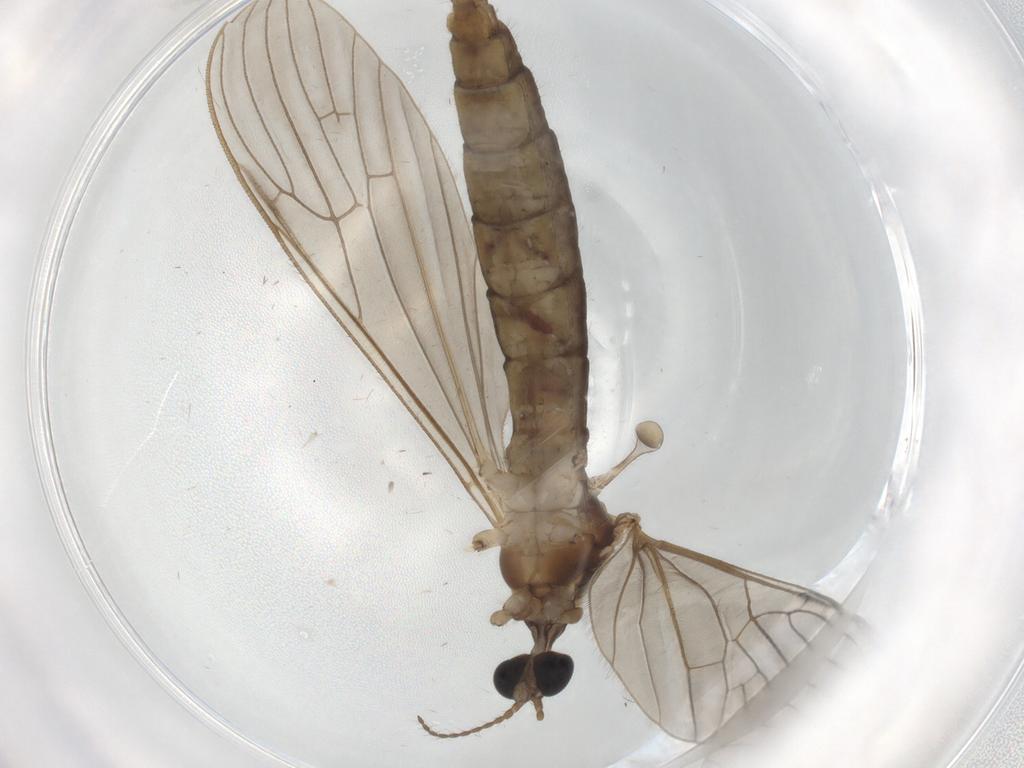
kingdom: Animalia
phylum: Arthropoda
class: Insecta
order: Diptera
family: Limoniidae
